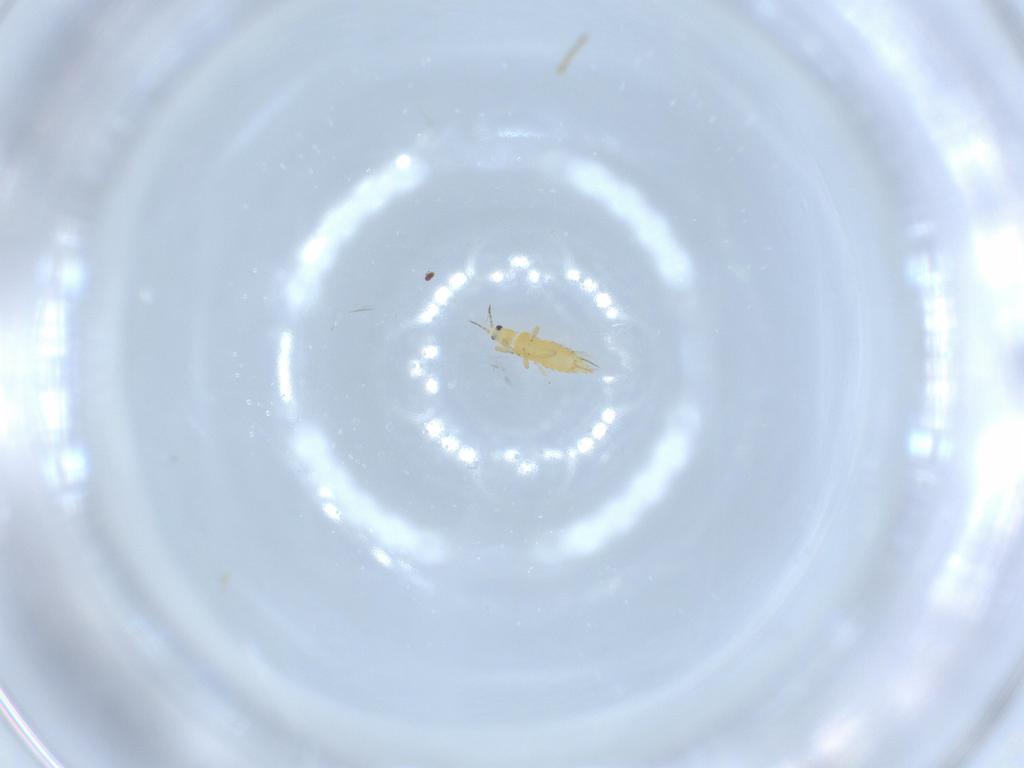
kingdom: Animalia
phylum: Arthropoda
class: Insecta
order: Thysanoptera
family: Thripidae
